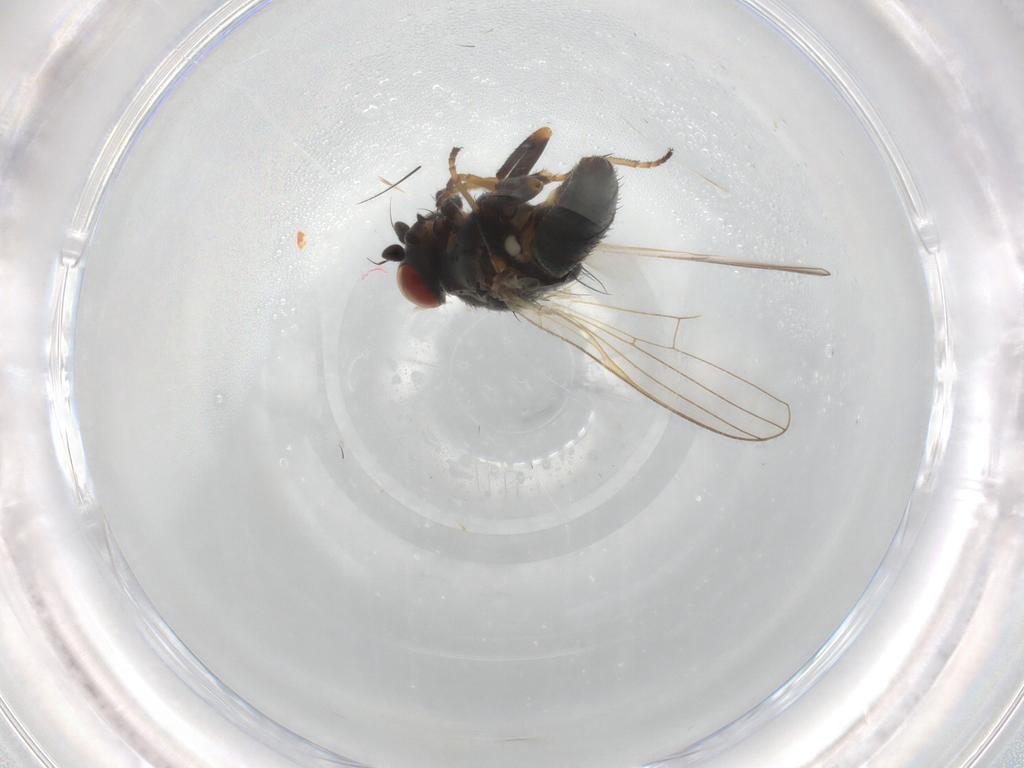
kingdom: Animalia
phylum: Arthropoda
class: Insecta
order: Diptera
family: Chamaemyiidae
